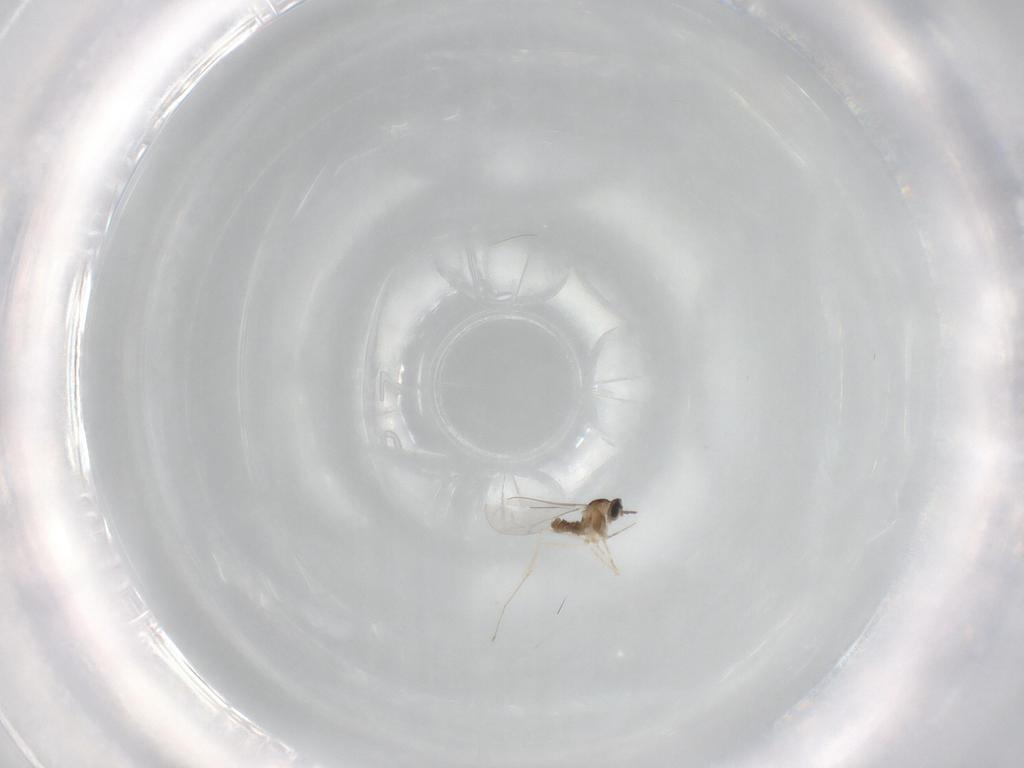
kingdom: Animalia
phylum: Arthropoda
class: Insecta
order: Diptera
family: Cecidomyiidae
